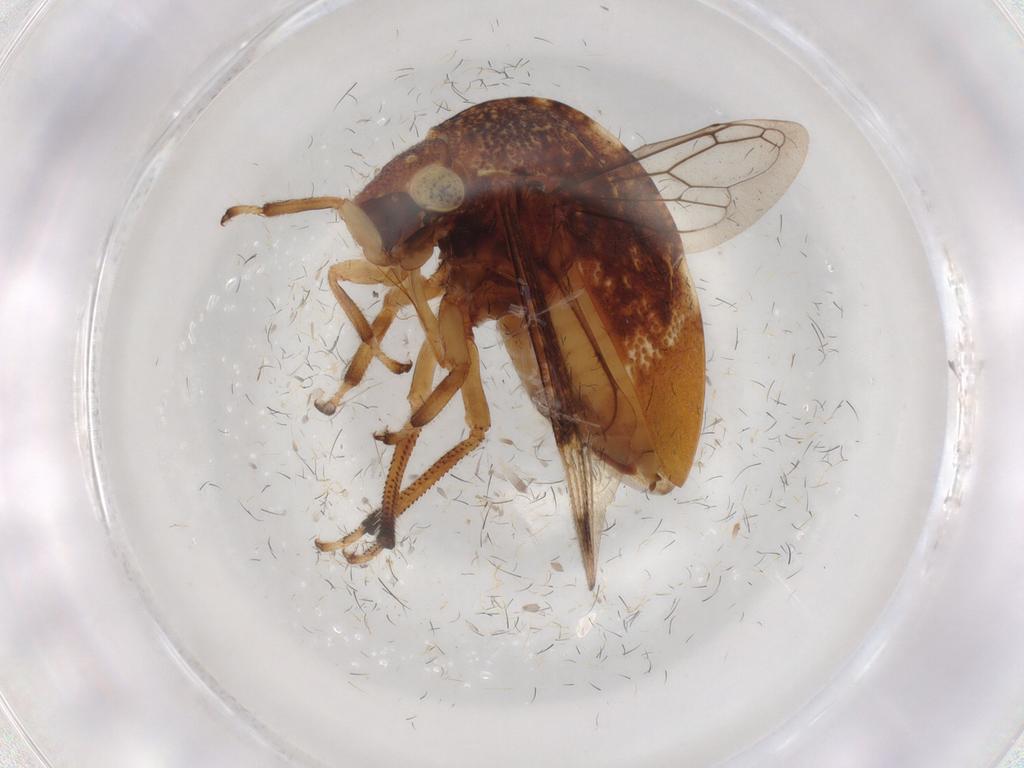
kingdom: Animalia
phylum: Arthropoda
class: Insecta
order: Hemiptera
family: Membracidae
